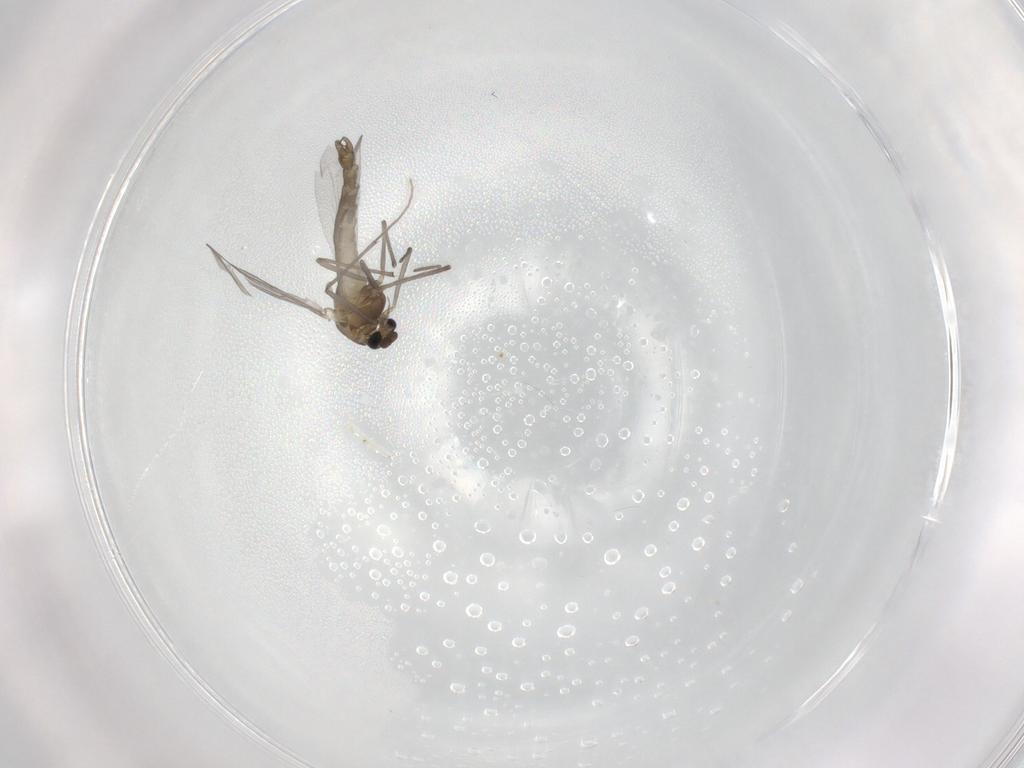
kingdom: Animalia
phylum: Arthropoda
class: Insecta
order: Diptera
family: Chironomidae
